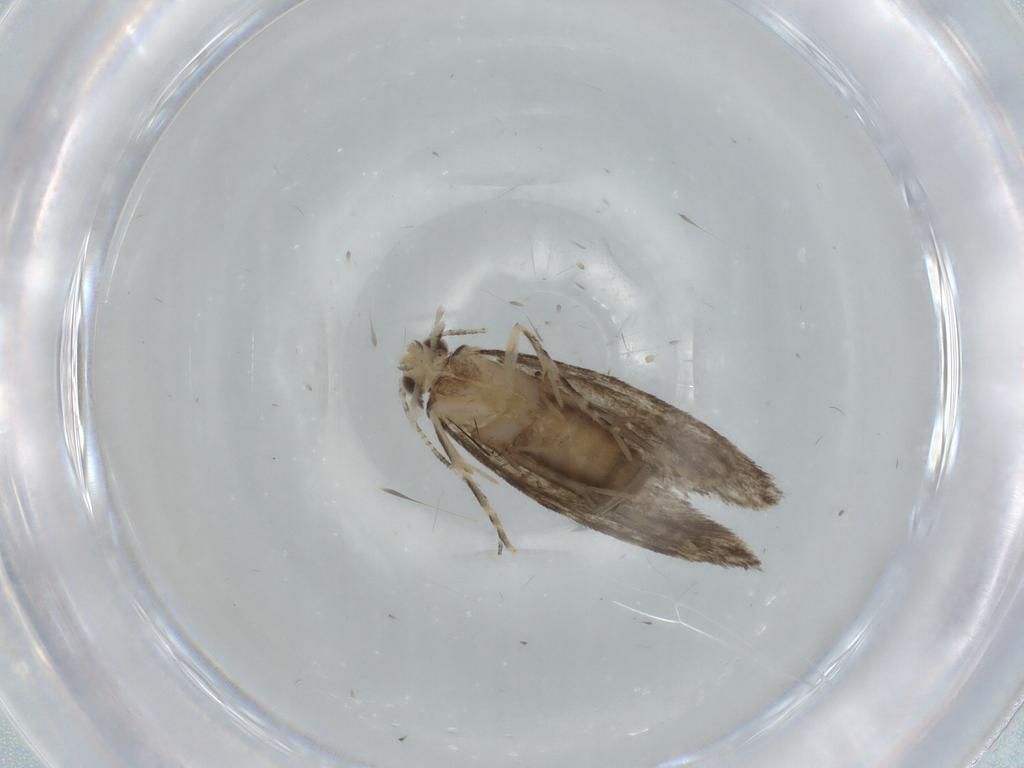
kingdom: Animalia
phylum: Arthropoda
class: Insecta
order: Lepidoptera
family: Tineidae
